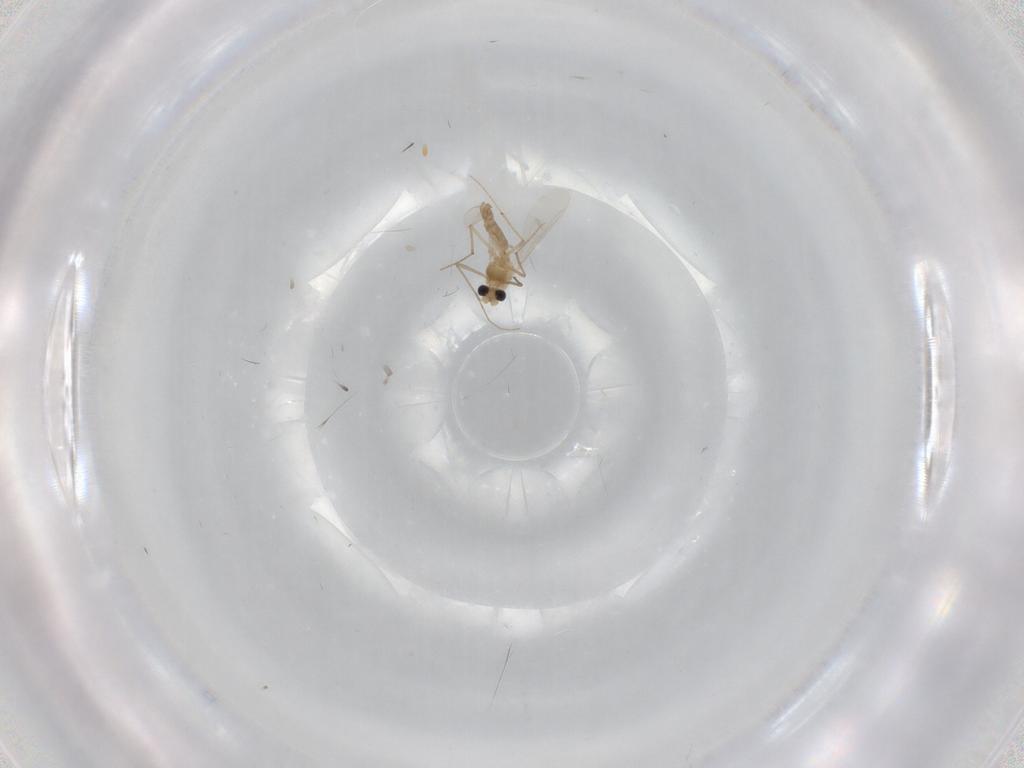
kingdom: Animalia
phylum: Arthropoda
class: Insecta
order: Diptera
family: Chironomidae
